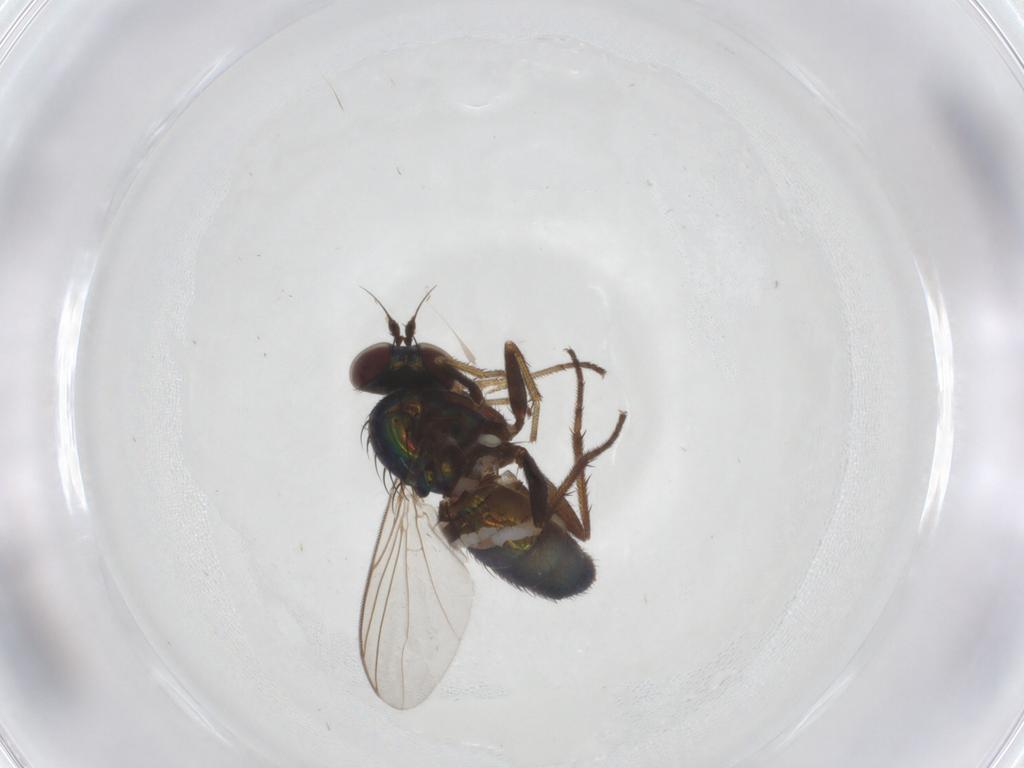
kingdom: Animalia
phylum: Arthropoda
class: Insecta
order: Diptera
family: Dolichopodidae
